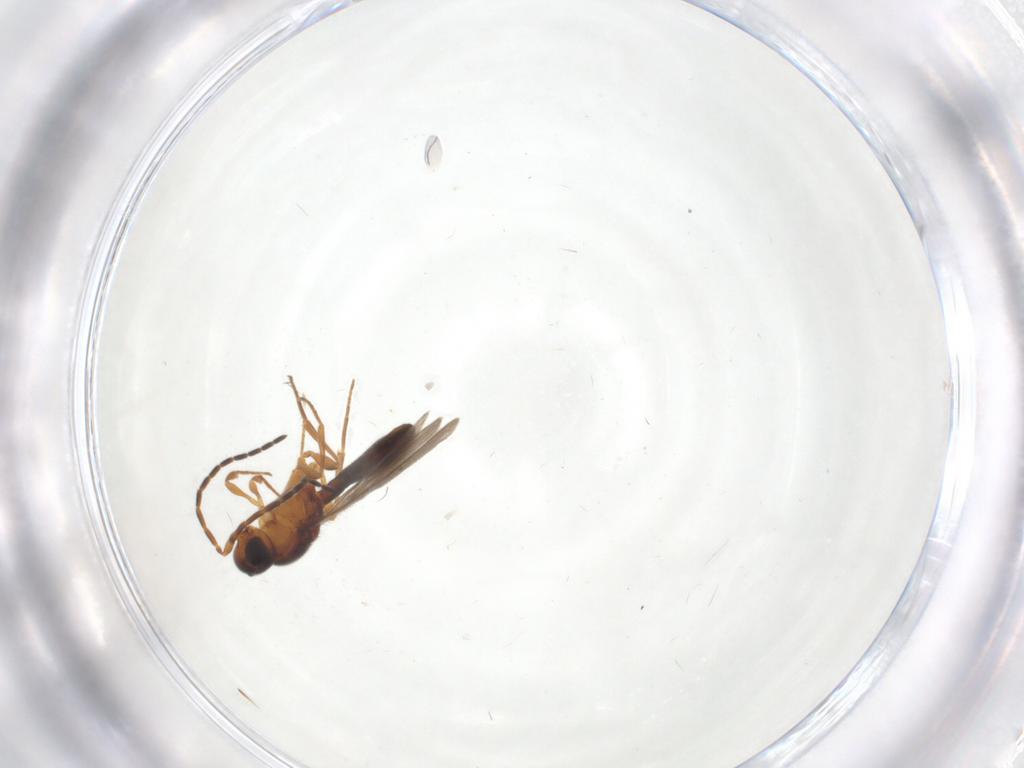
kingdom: Animalia
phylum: Arthropoda
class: Insecta
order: Hymenoptera
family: Scelionidae
